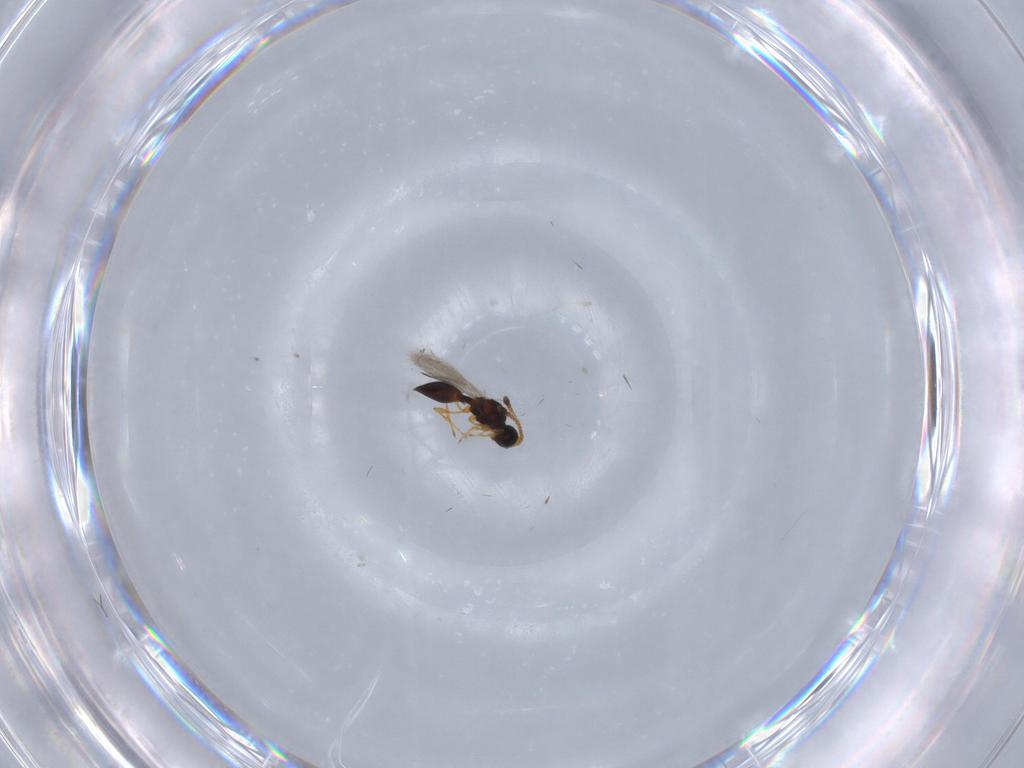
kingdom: Animalia
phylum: Arthropoda
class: Insecta
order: Hymenoptera
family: Diapriidae
